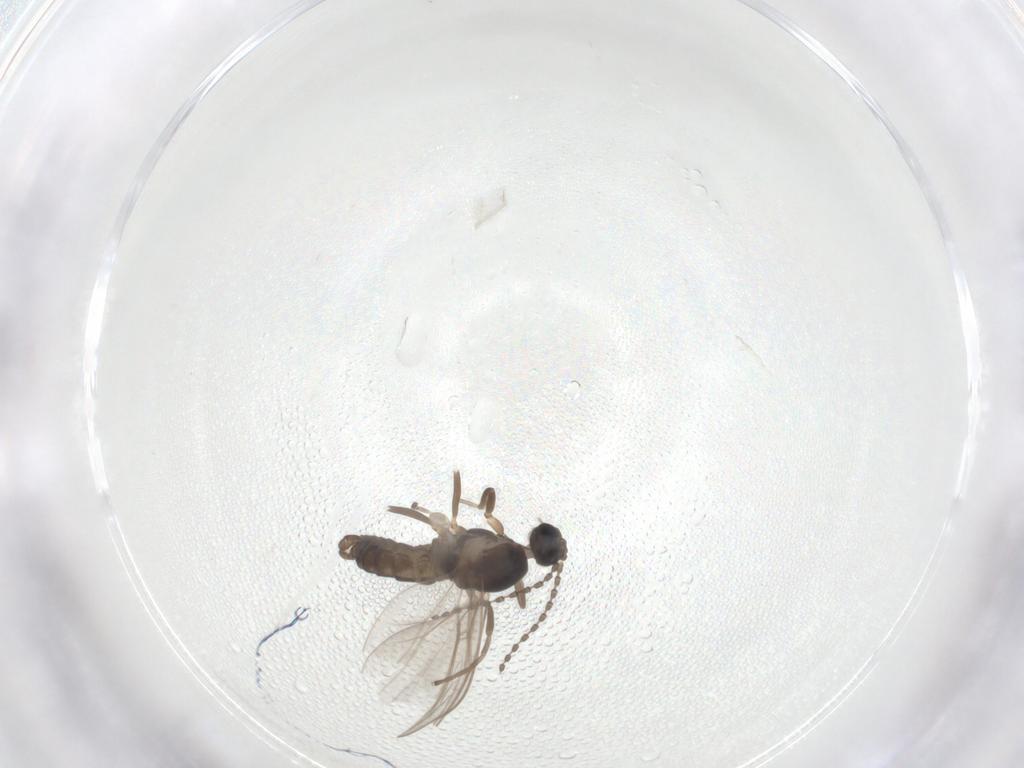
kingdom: Animalia
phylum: Arthropoda
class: Insecta
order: Diptera
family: Cecidomyiidae
